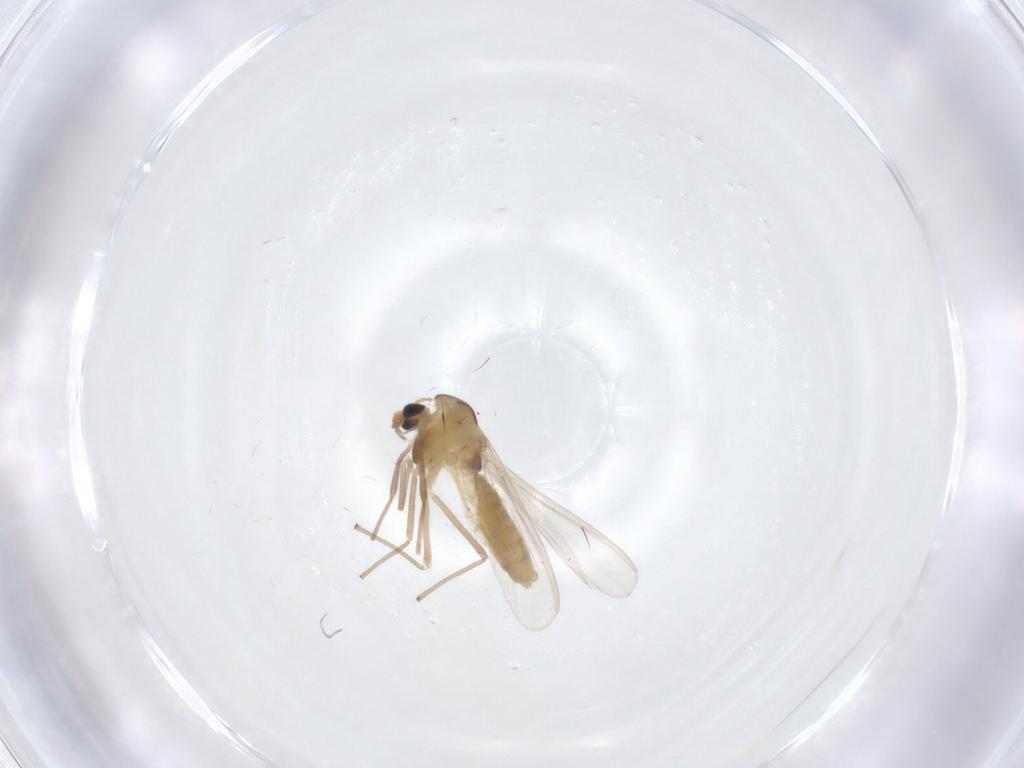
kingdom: Animalia
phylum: Arthropoda
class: Insecta
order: Diptera
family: Chironomidae
